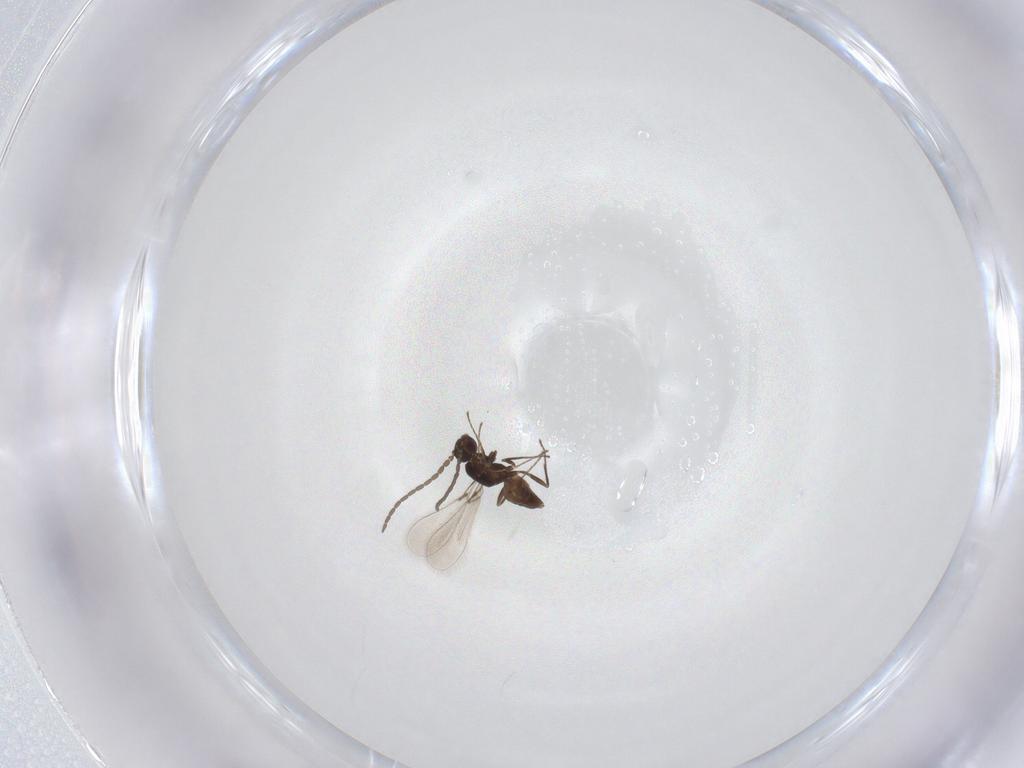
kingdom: Animalia
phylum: Arthropoda
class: Insecta
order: Hymenoptera
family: Mymaridae
